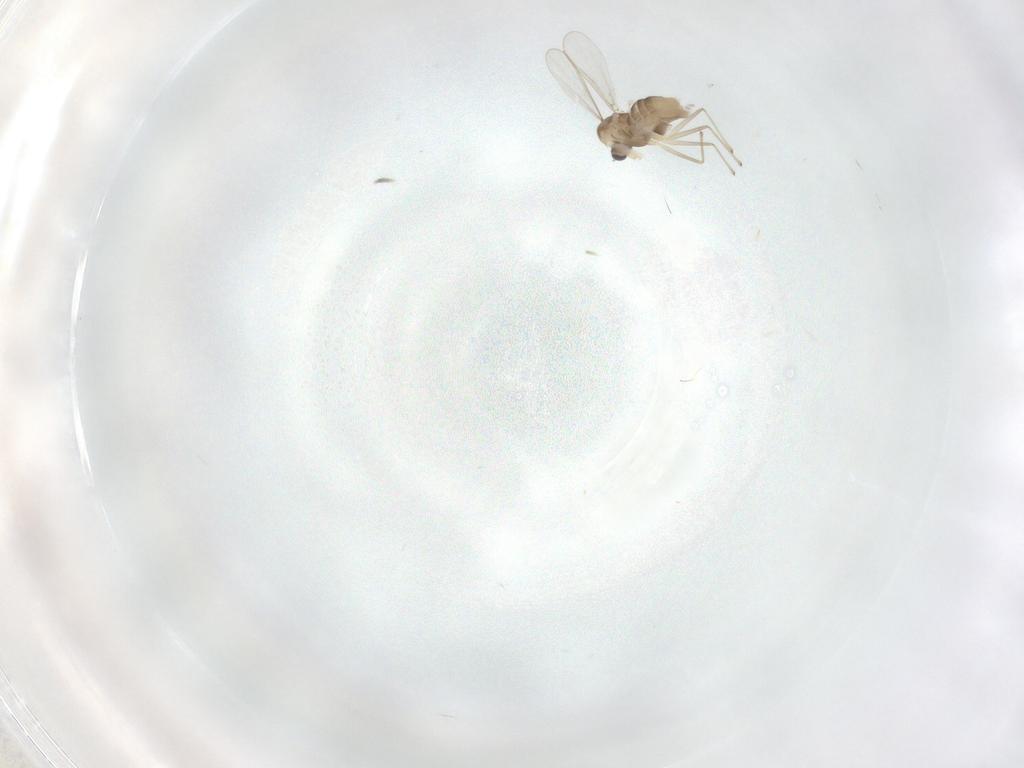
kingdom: Animalia
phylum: Arthropoda
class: Insecta
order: Diptera
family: Chironomidae
